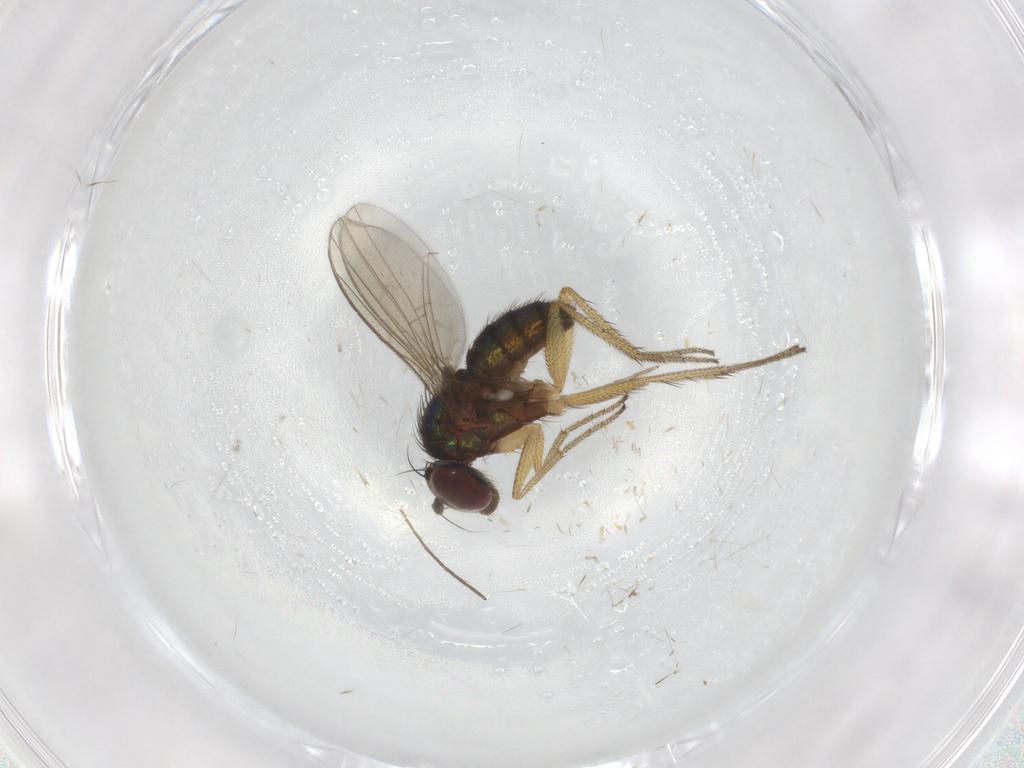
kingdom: Animalia
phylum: Arthropoda
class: Insecta
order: Diptera
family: Dolichopodidae
